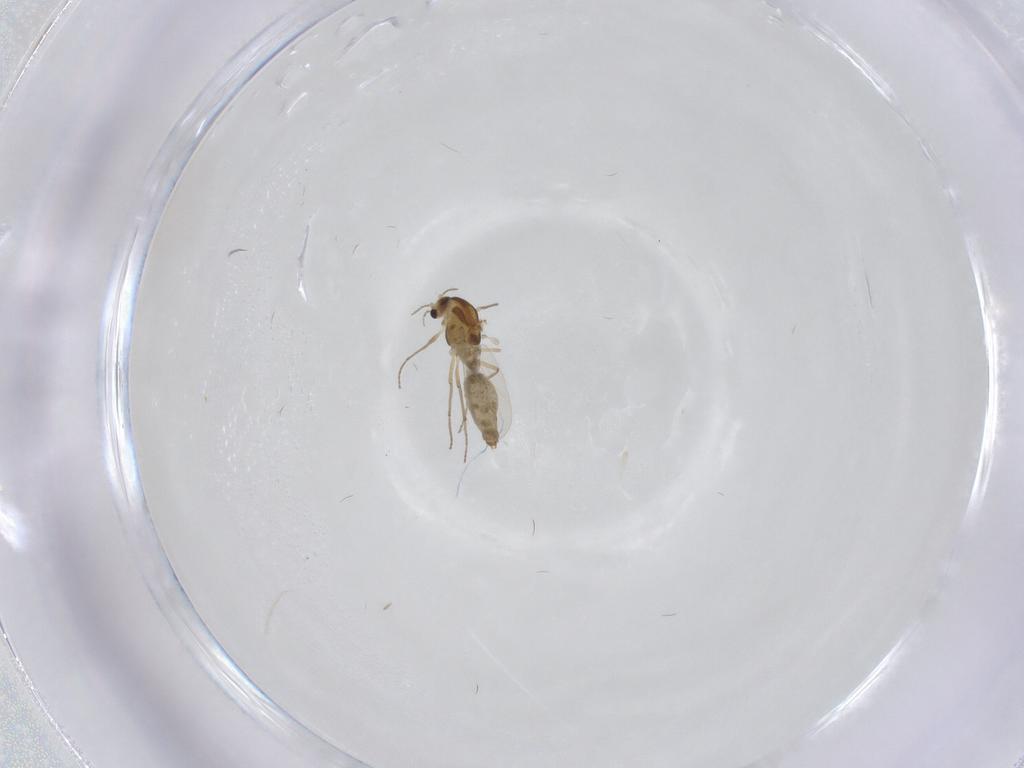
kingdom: Animalia
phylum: Arthropoda
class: Insecta
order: Diptera
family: Chironomidae
